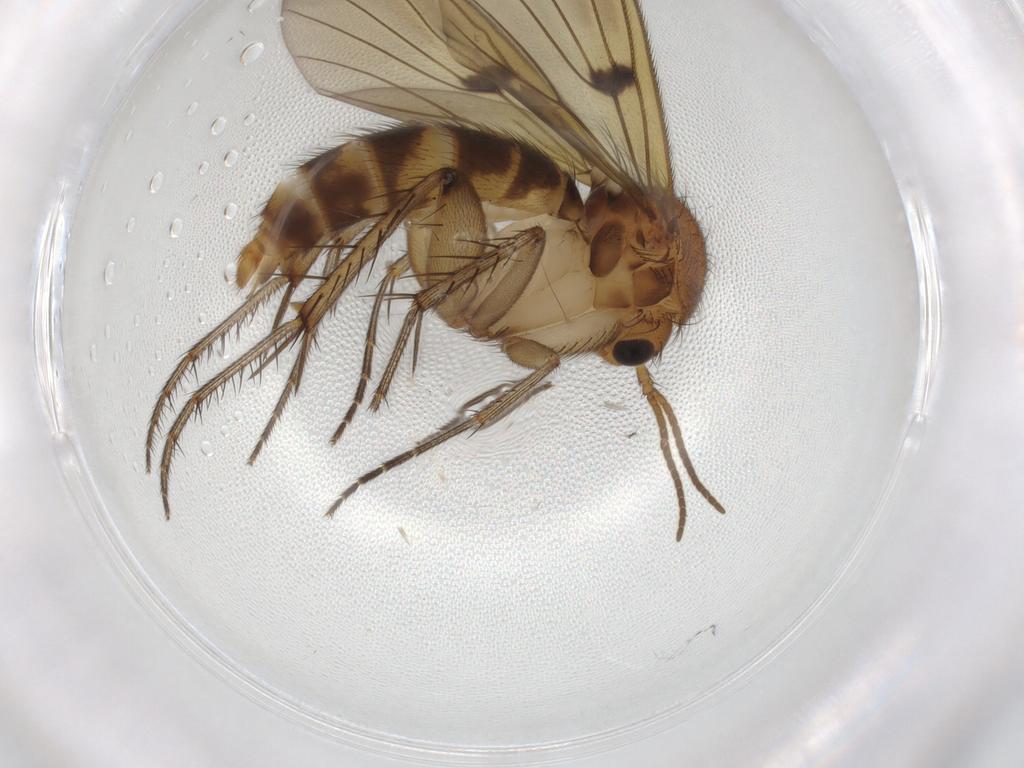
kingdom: Animalia
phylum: Arthropoda
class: Insecta
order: Diptera
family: Mycetophilidae
